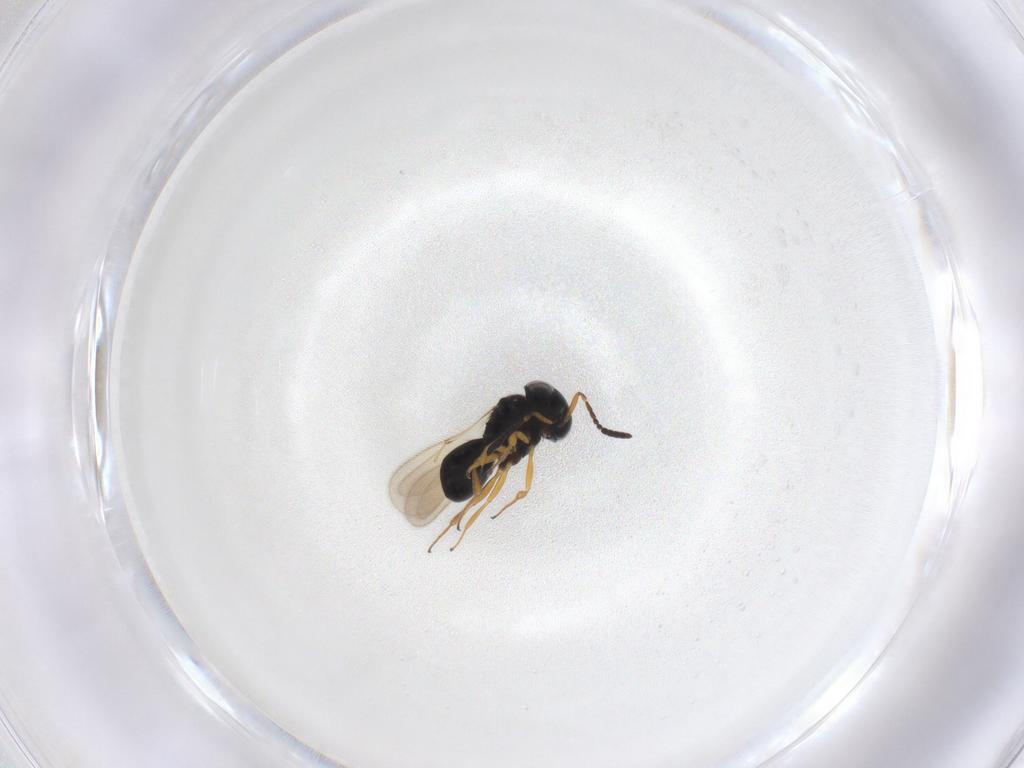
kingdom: Animalia
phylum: Arthropoda
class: Insecta
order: Hymenoptera
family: Scelionidae
